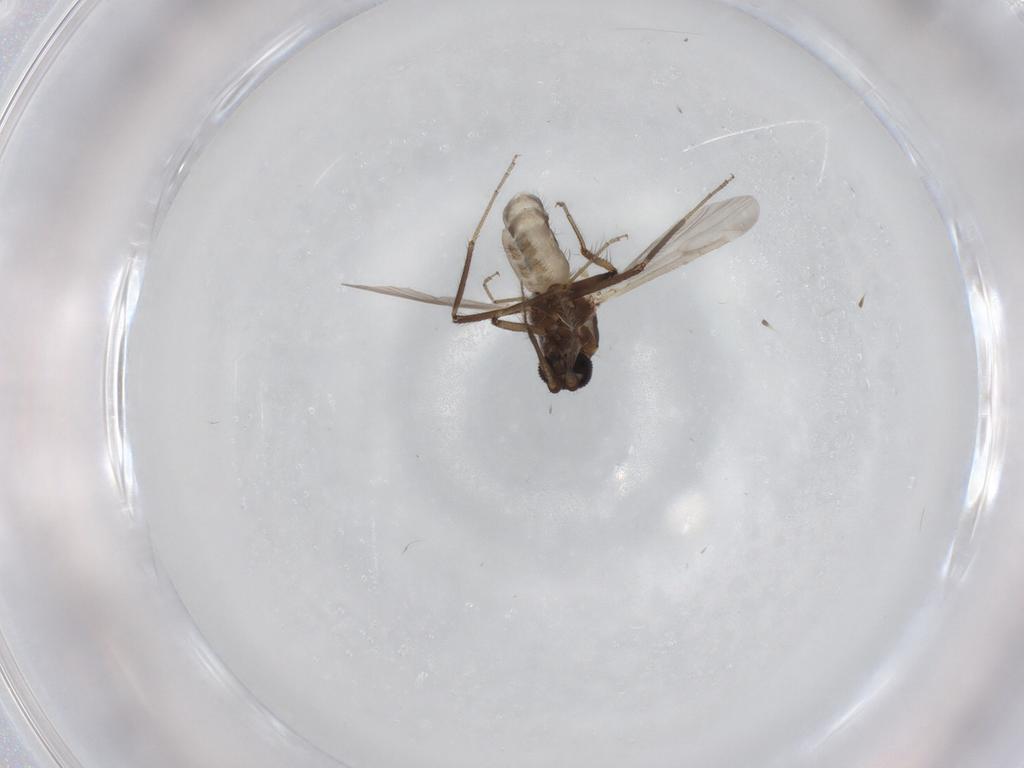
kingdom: Animalia
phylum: Arthropoda
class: Insecta
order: Diptera
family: Ceratopogonidae
